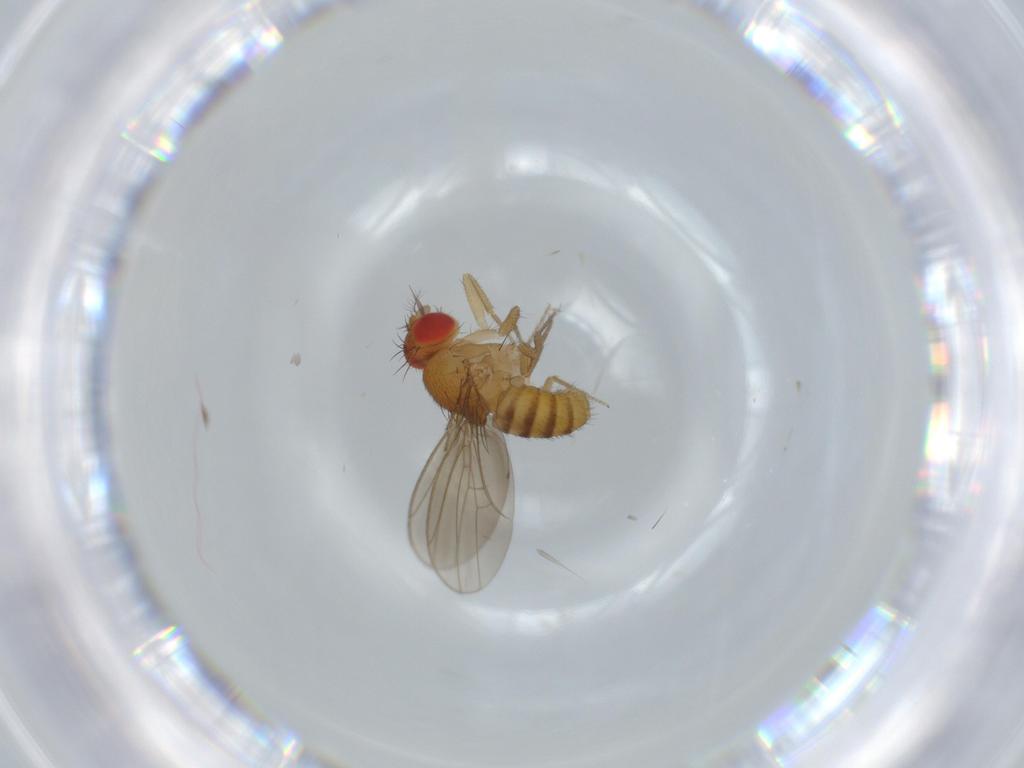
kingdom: Animalia
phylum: Arthropoda
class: Insecta
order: Diptera
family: Drosophilidae
